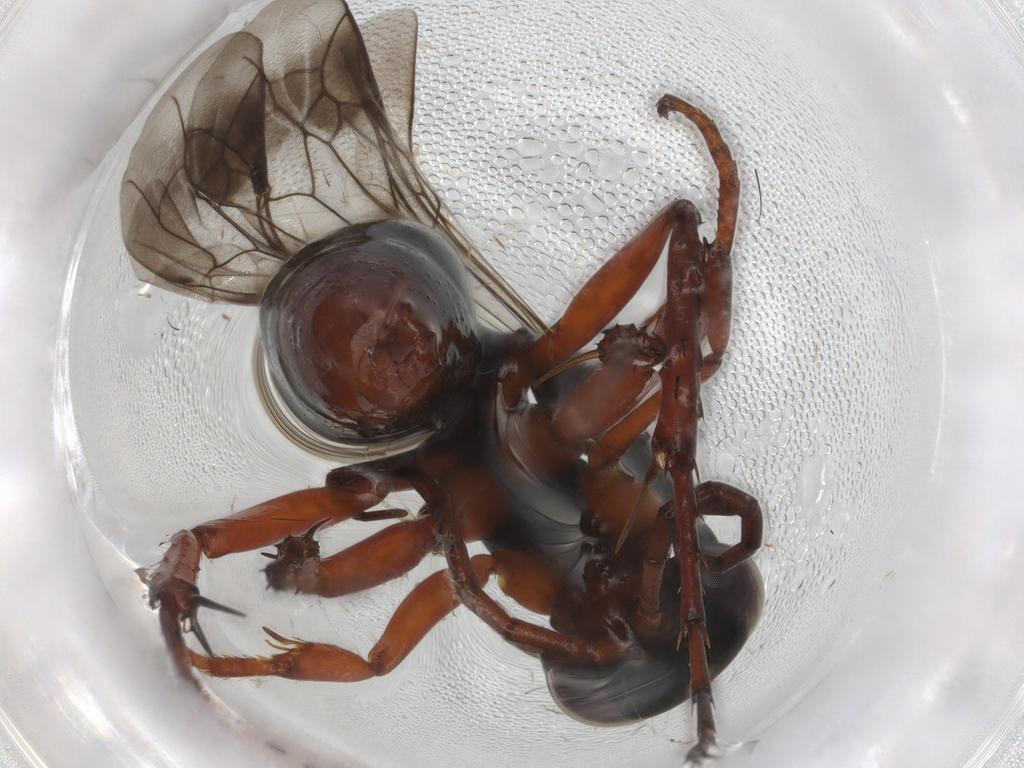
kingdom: Animalia
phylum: Arthropoda
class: Insecta
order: Hymenoptera
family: Pompilidae
